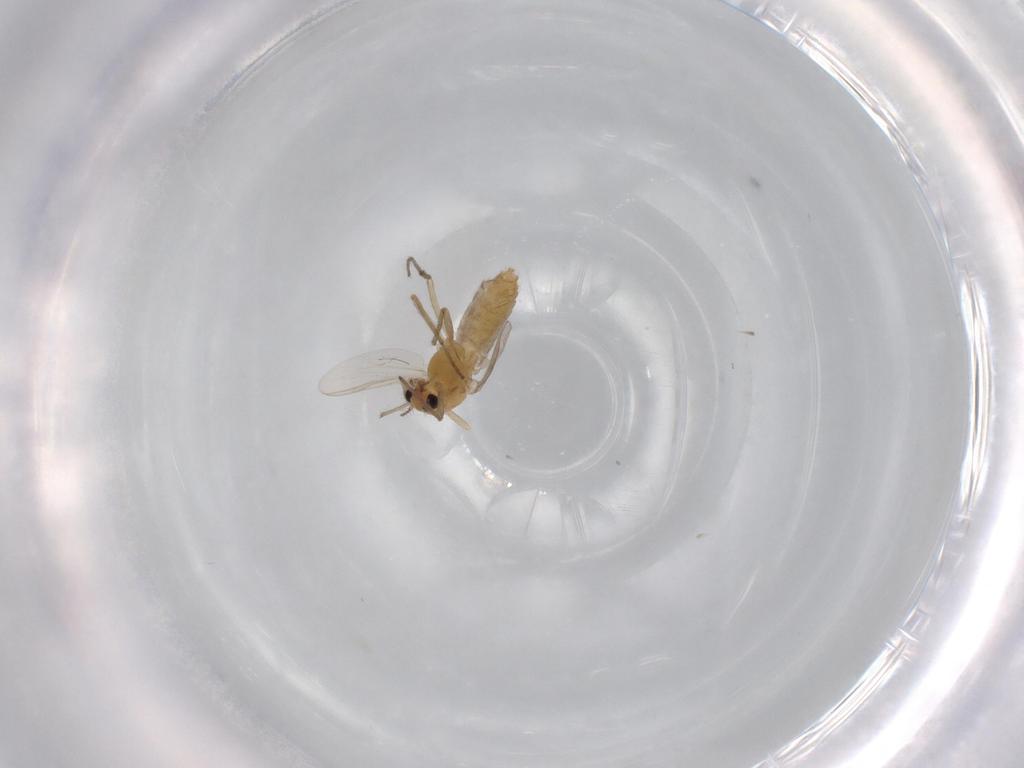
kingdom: Animalia
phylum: Arthropoda
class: Insecta
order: Diptera
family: Chironomidae
